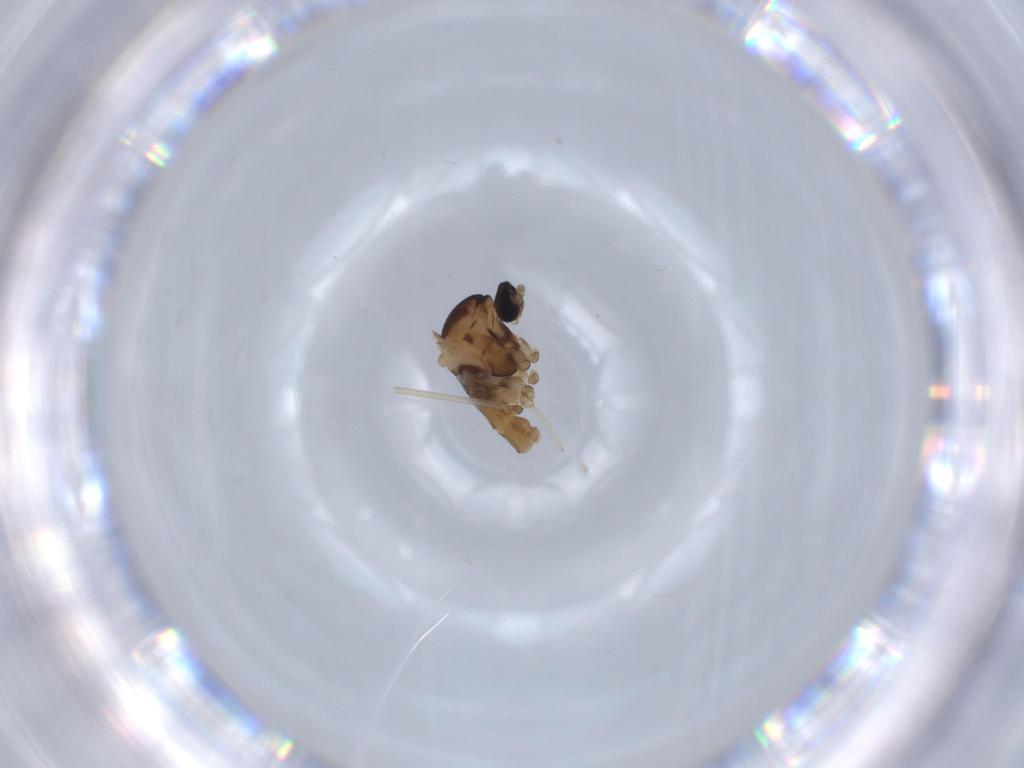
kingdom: Animalia
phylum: Arthropoda
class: Insecta
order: Diptera
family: Cecidomyiidae
